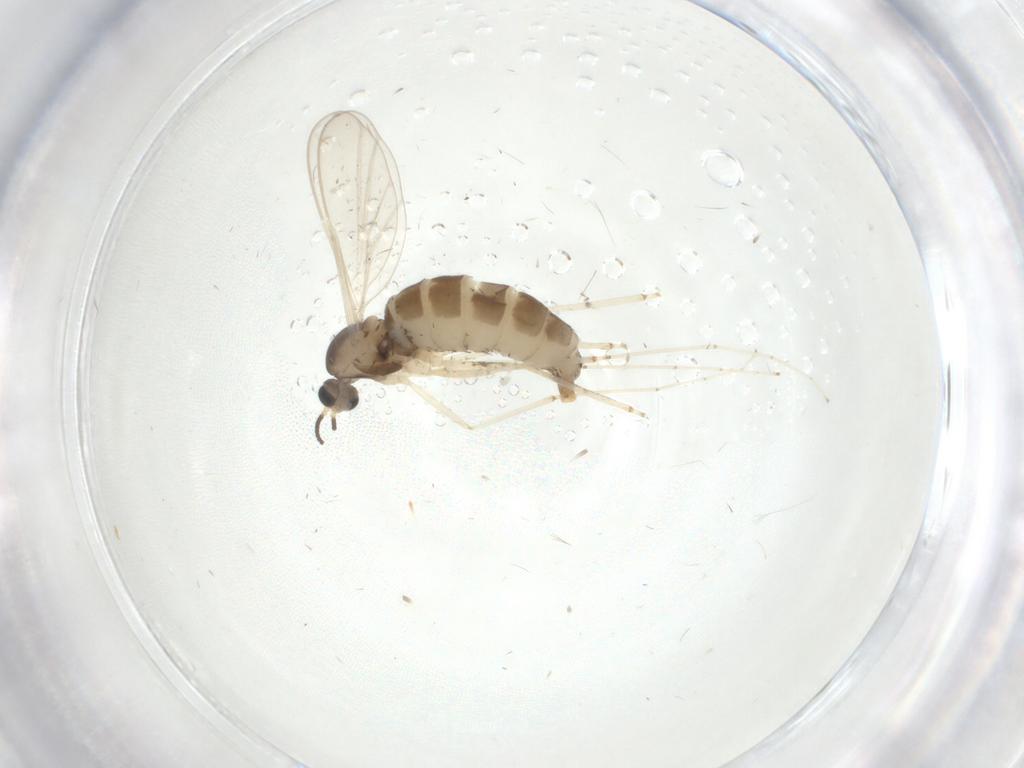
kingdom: Animalia
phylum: Arthropoda
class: Insecta
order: Diptera
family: Cecidomyiidae
